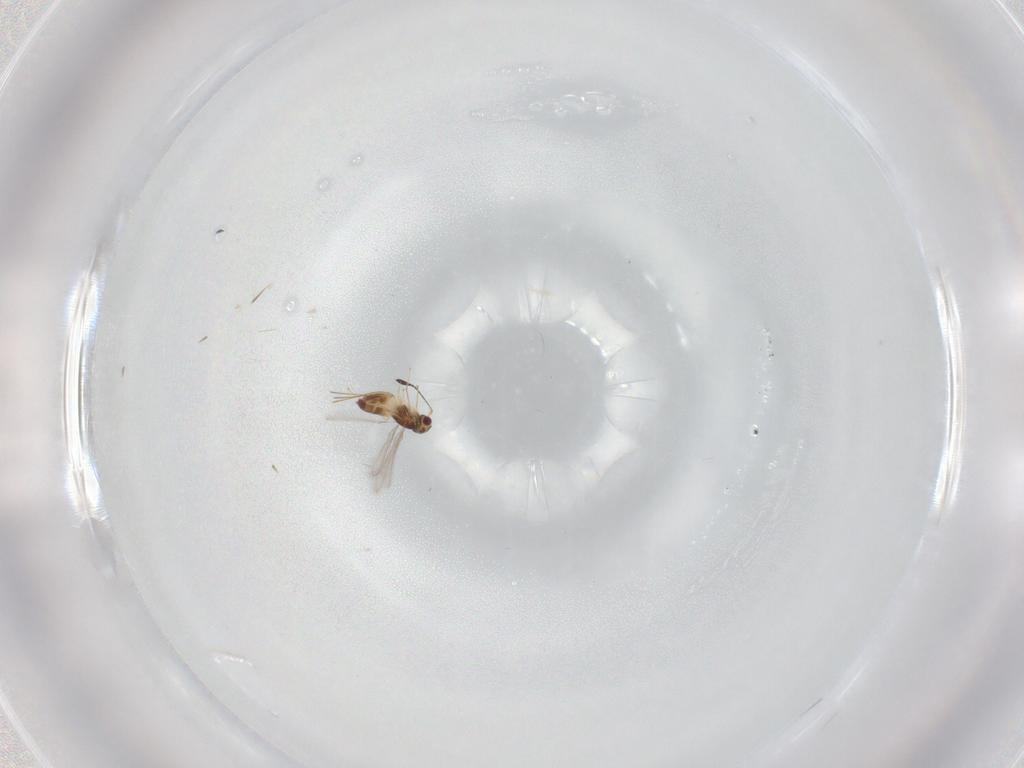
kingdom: Animalia
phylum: Arthropoda
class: Insecta
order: Hymenoptera
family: Mymaridae
